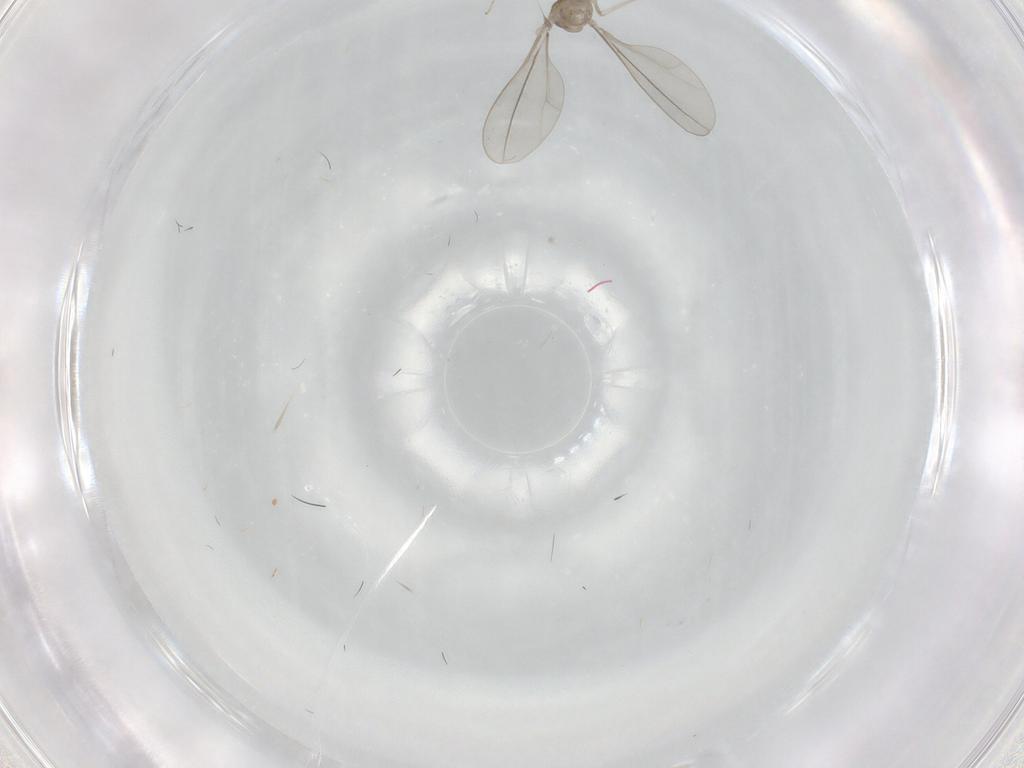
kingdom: Animalia
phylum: Arthropoda
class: Insecta
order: Diptera
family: Cecidomyiidae
